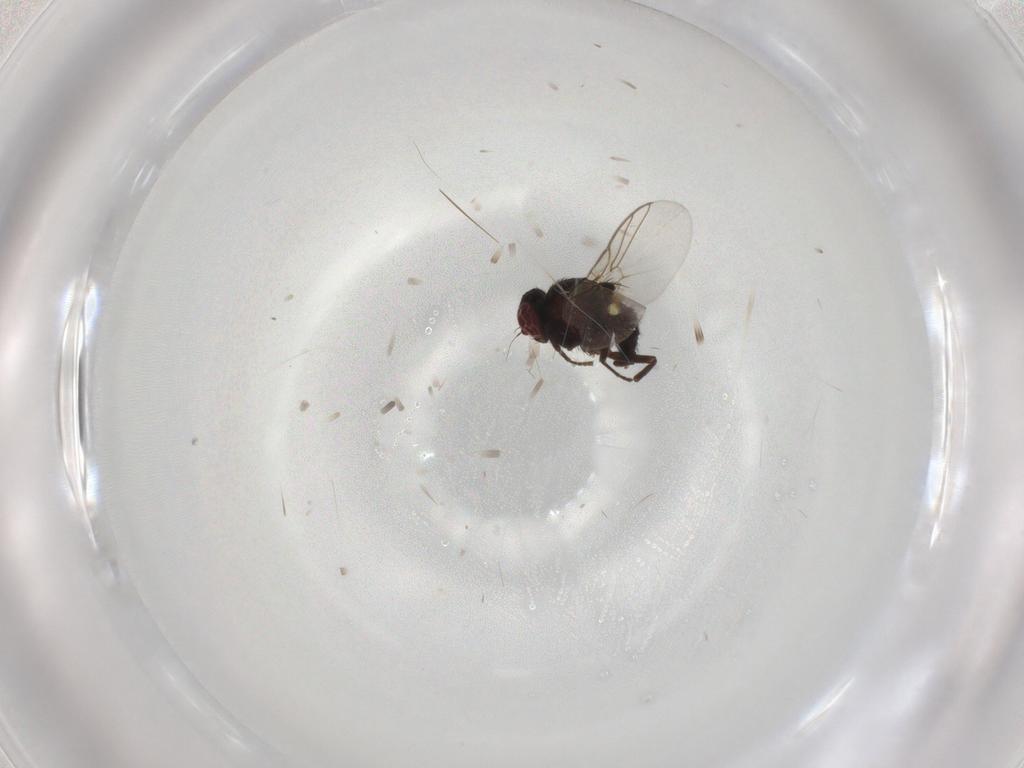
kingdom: Animalia
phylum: Arthropoda
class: Insecta
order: Diptera
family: Agromyzidae
